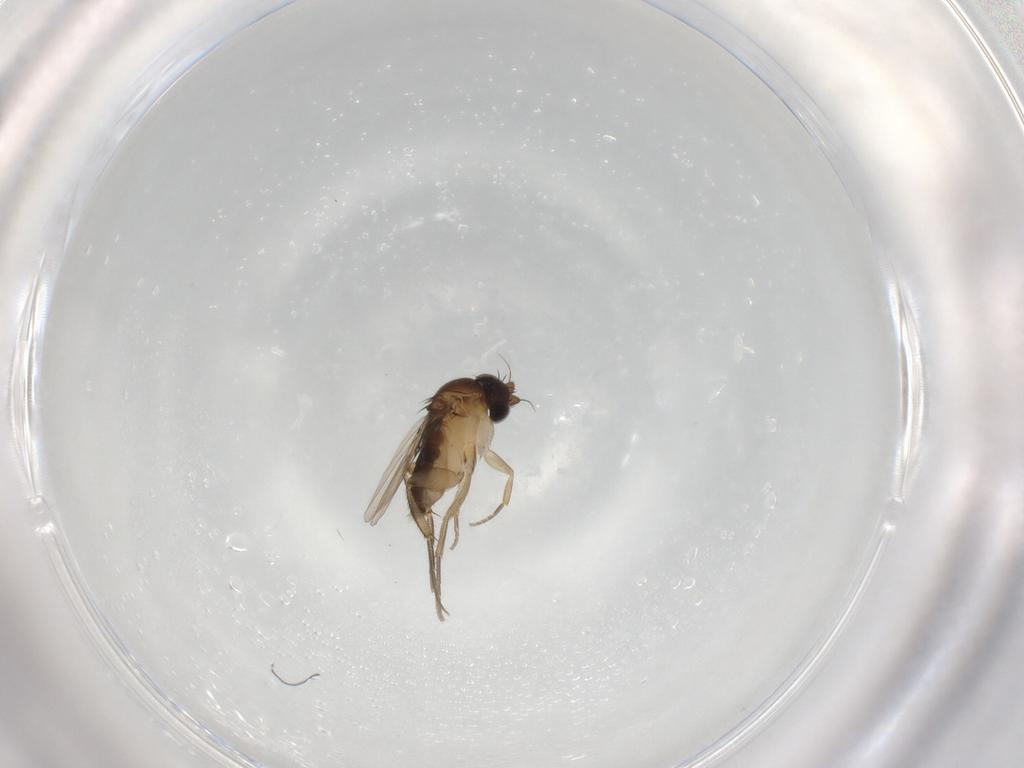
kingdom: Animalia
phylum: Arthropoda
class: Insecta
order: Diptera
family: Phoridae
